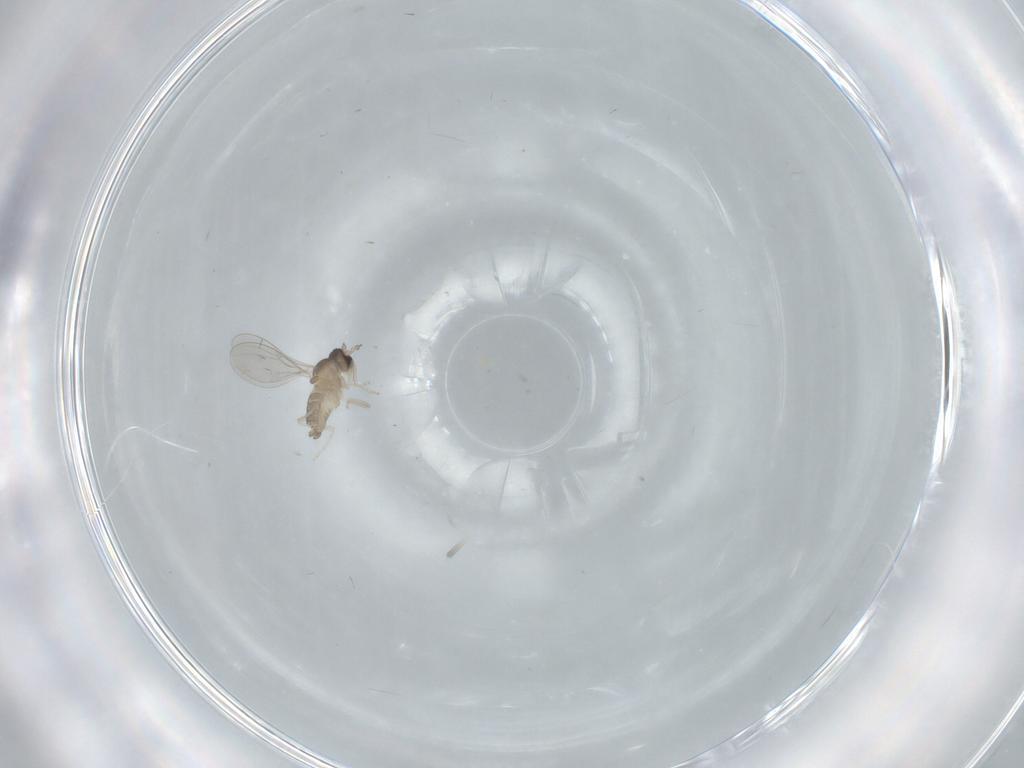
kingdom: Animalia
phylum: Arthropoda
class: Insecta
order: Diptera
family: Cecidomyiidae
